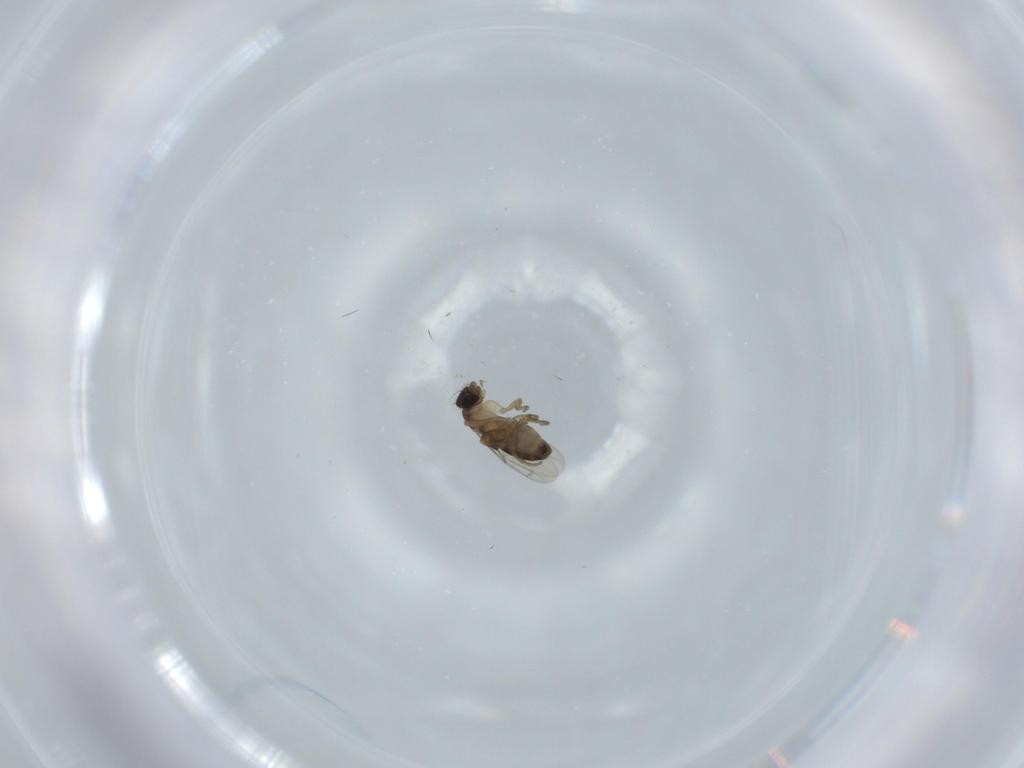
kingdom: Animalia
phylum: Arthropoda
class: Insecta
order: Diptera
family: Phoridae
